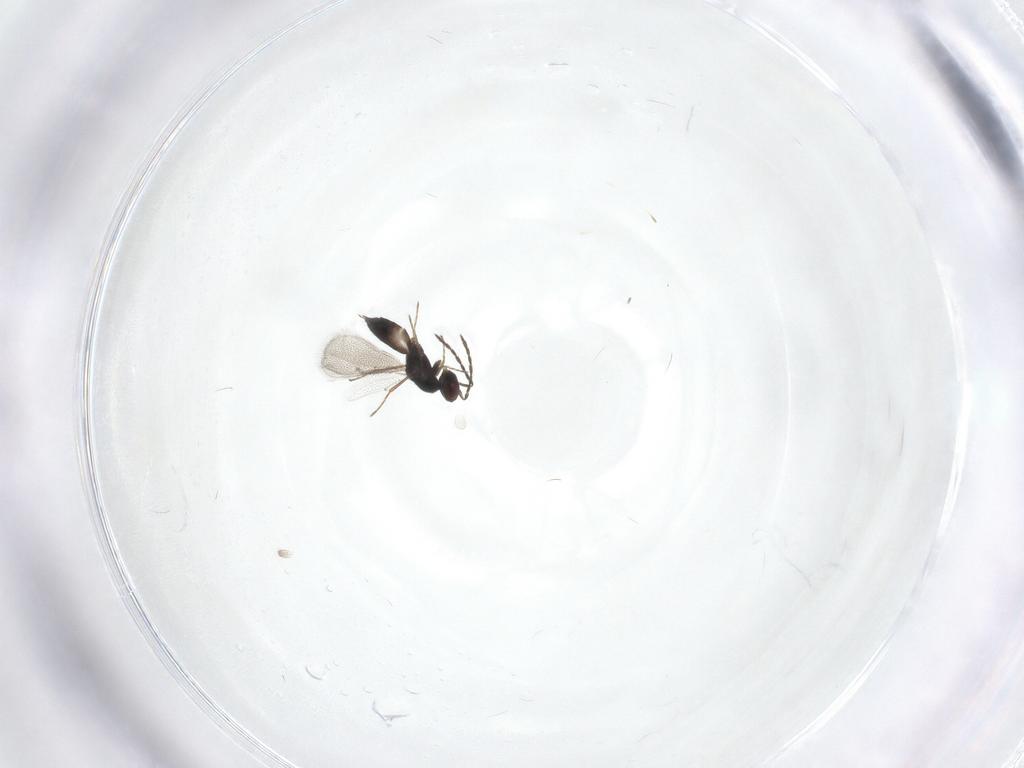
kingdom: Animalia
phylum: Arthropoda
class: Insecta
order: Hymenoptera
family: Eulophidae
